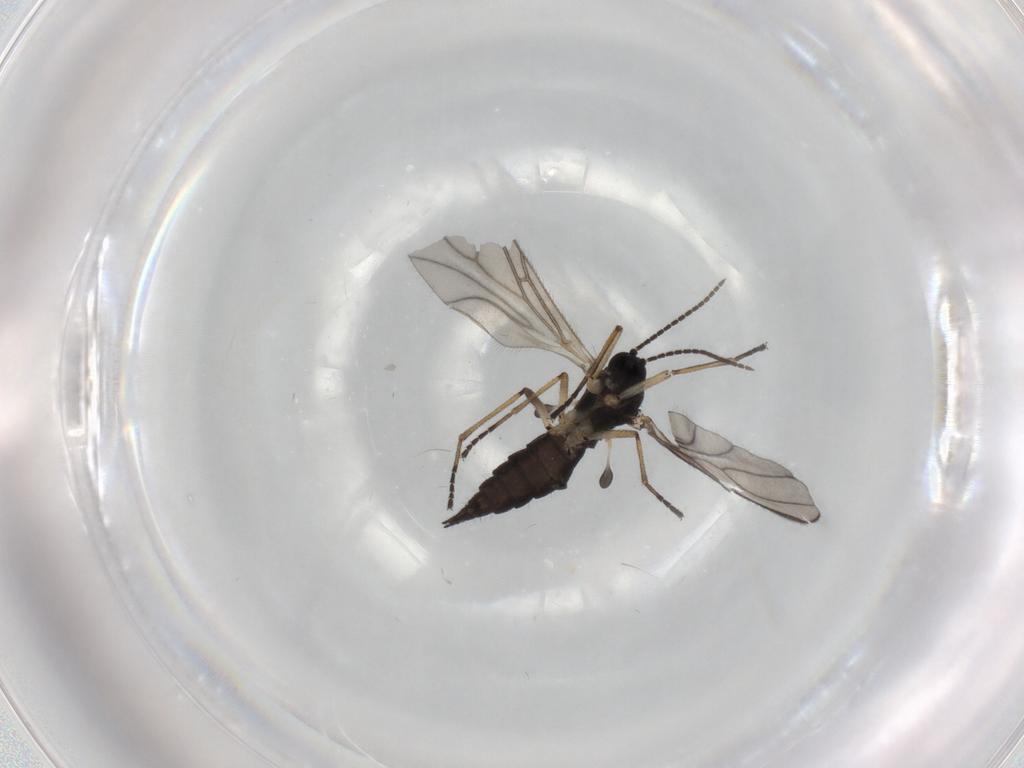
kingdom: Animalia
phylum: Arthropoda
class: Insecta
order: Diptera
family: Sciaridae
